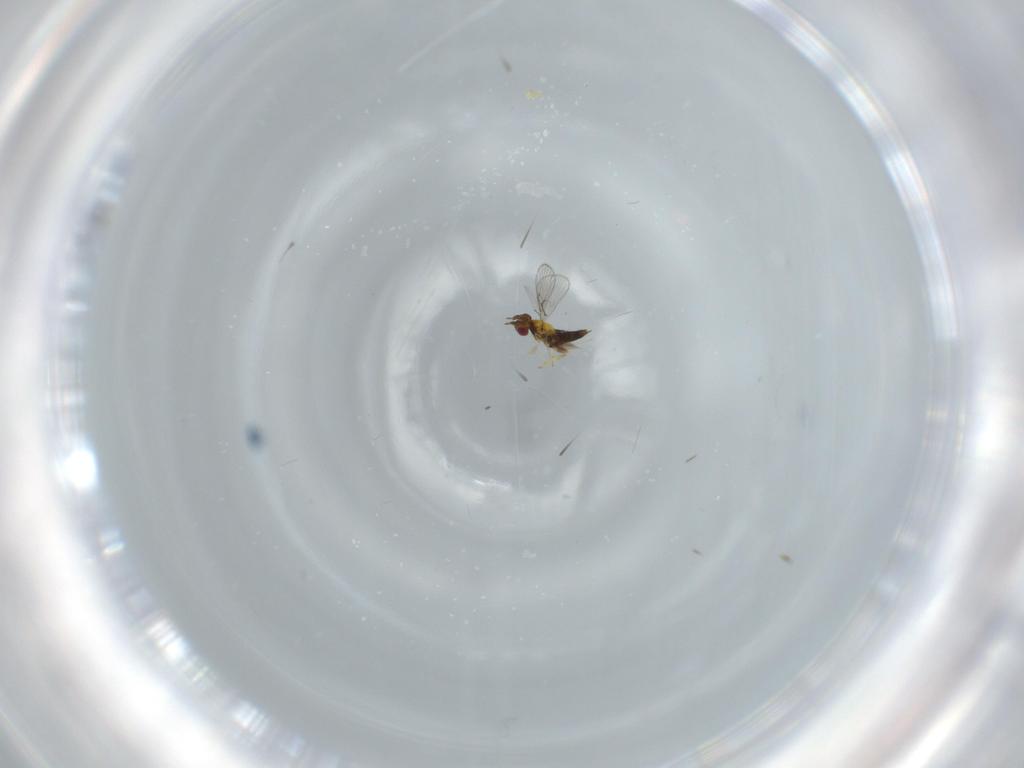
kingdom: Animalia
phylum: Arthropoda
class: Insecta
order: Hymenoptera
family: Trichogrammatidae
